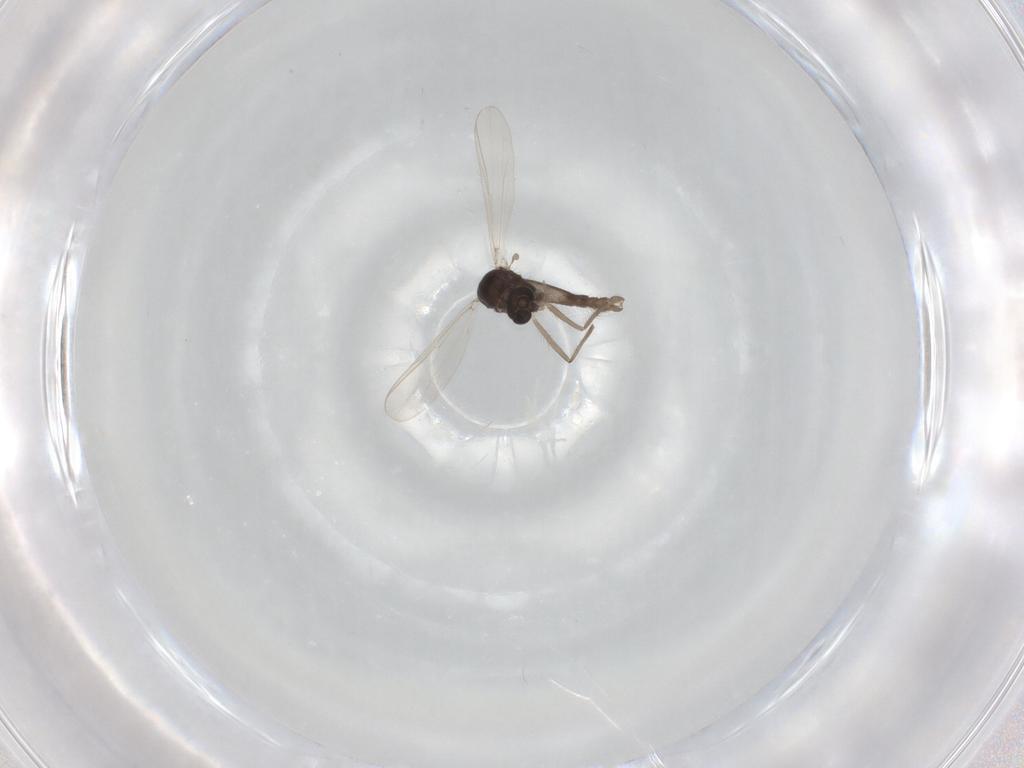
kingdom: Animalia
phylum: Arthropoda
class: Insecta
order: Diptera
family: Chironomidae
